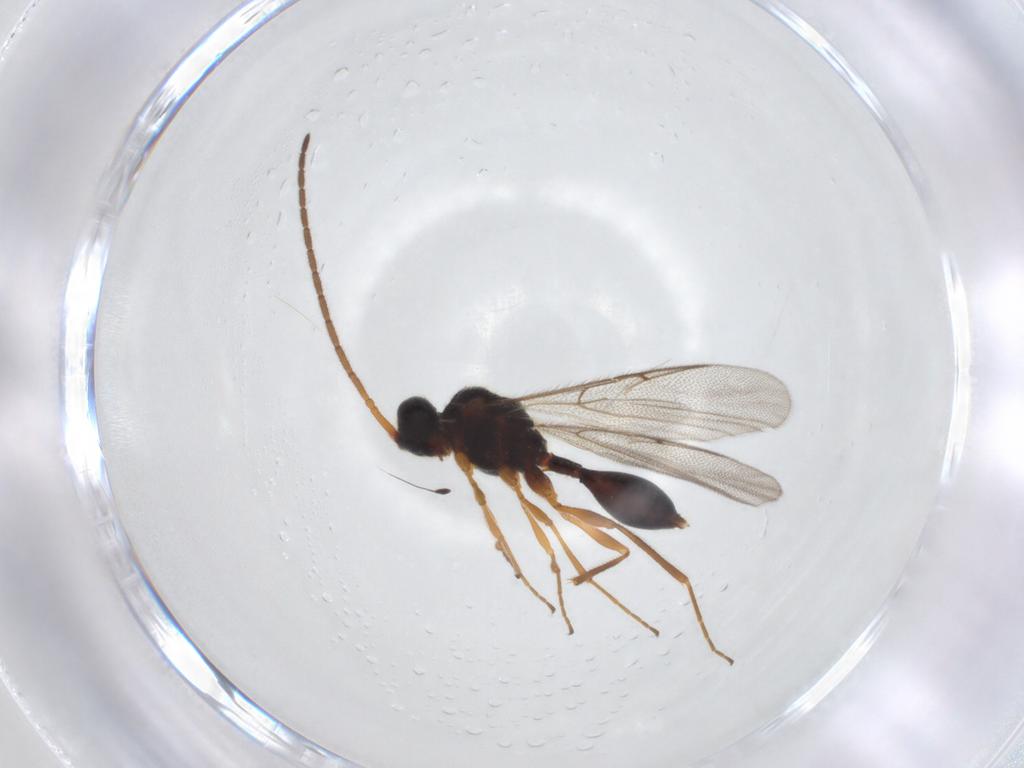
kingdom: Animalia
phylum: Arthropoda
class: Insecta
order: Hymenoptera
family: Diapriidae
